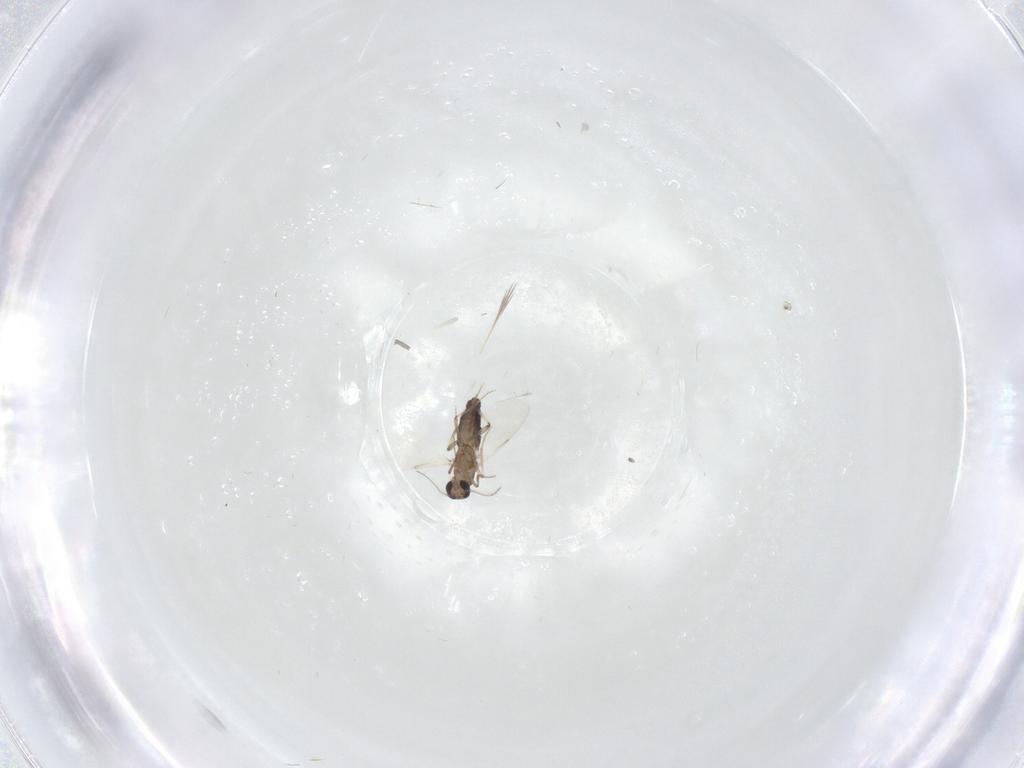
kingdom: Animalia
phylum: Arthropoda
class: Insecta
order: Diptera
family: Ceratopogonidae
